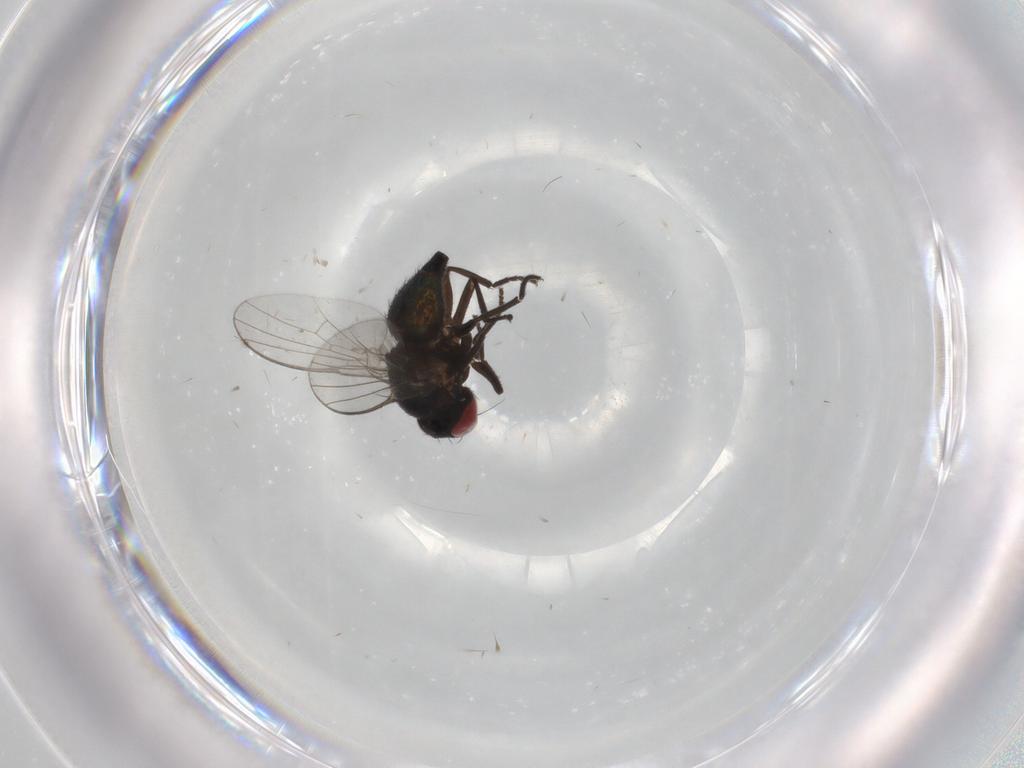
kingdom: Animalia
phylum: Arthropoda
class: Insecta
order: Diptera
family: Agromyzidae
